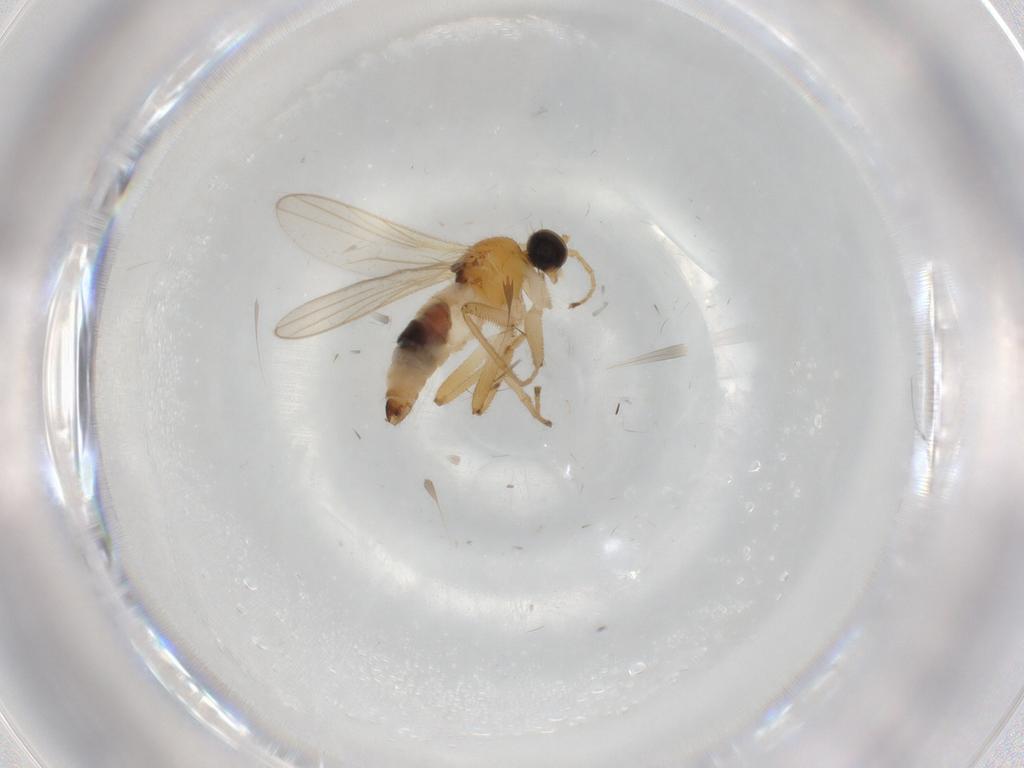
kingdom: Animalia
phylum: Arthropoda
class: Insecta
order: Diptera
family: Hybotidae
